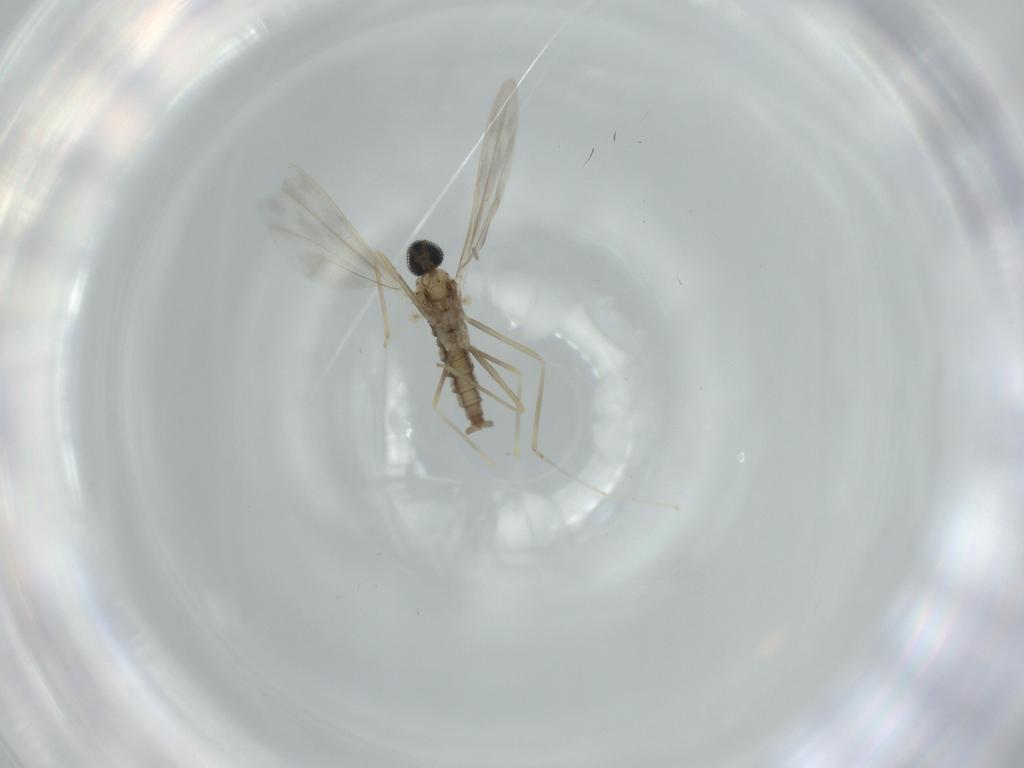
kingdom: Animalia
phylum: Arthropoda
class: Insecta
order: Diptera
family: Cecidomyiidae
